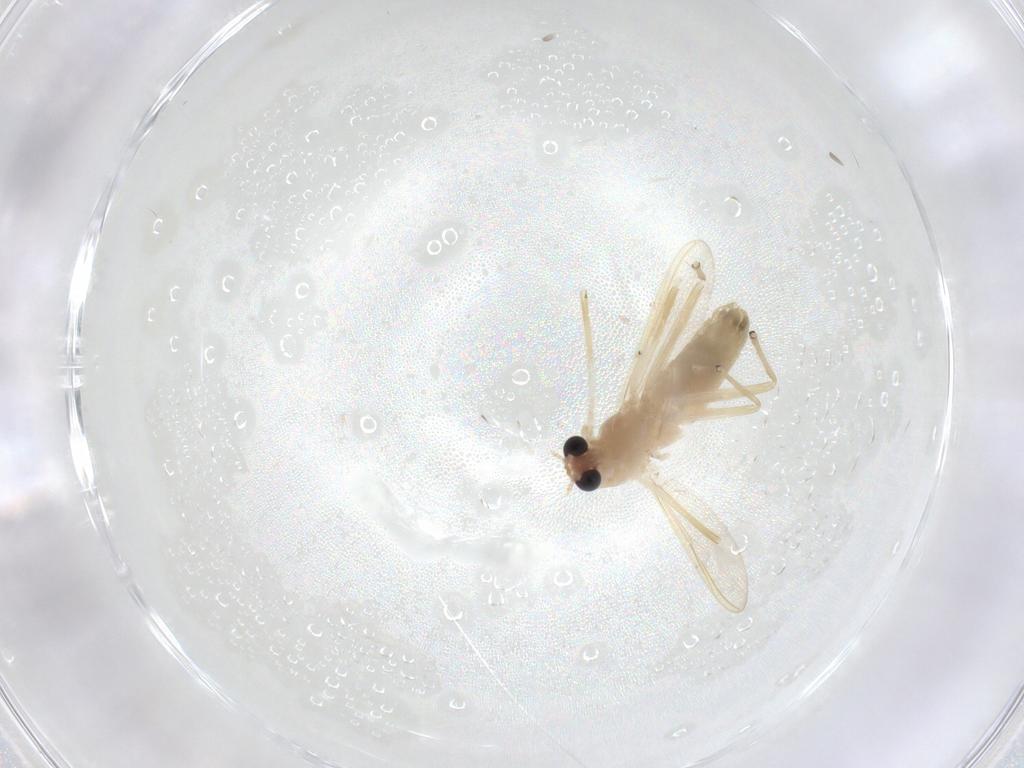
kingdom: Animalia
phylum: Arthropoda
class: Insecta
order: Diptera
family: Chironomidae
